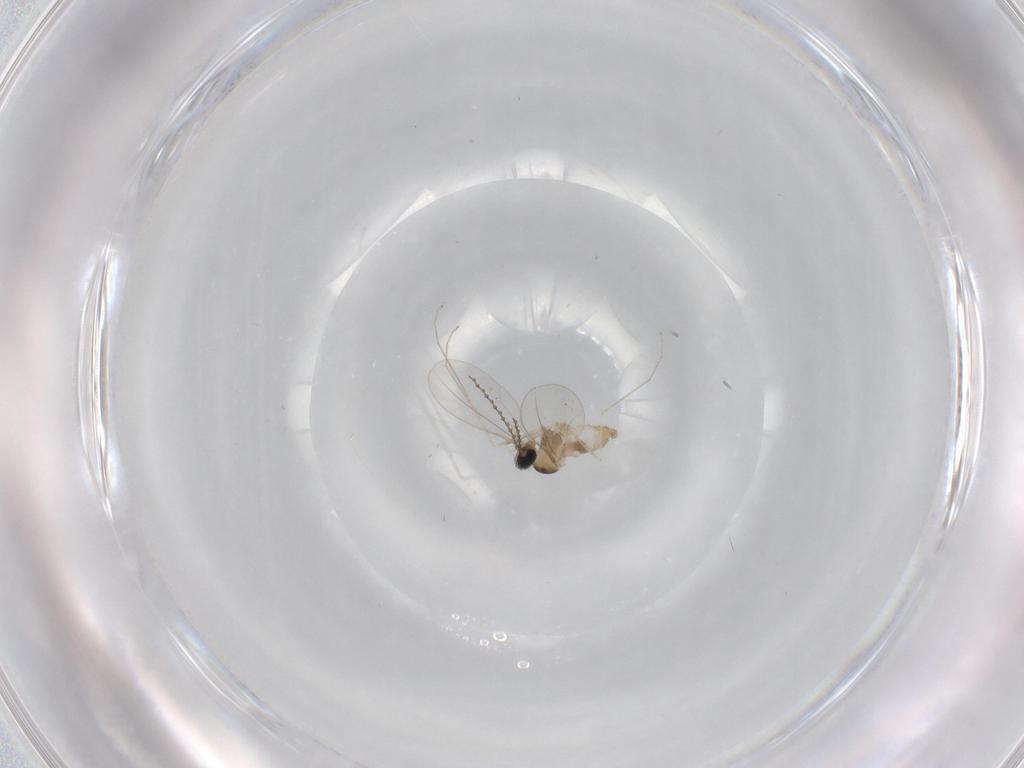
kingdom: Animalia
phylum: Arthropoda
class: Insecta
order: Diptera
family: Cecidomyiidae
